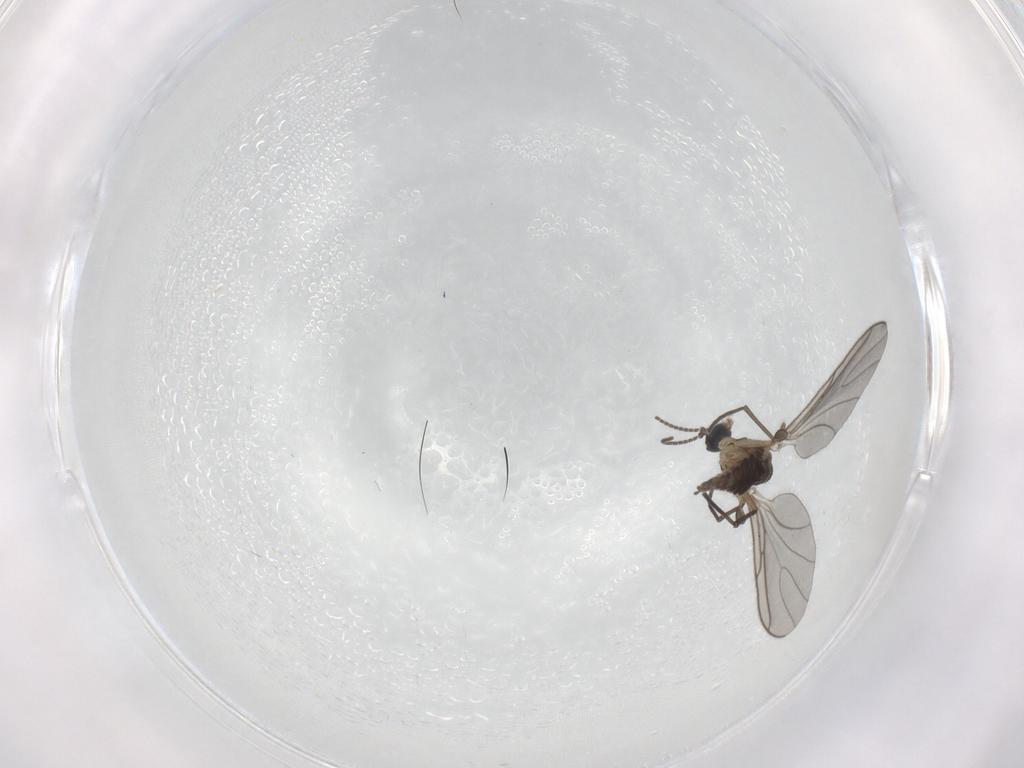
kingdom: Animalia
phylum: Arthropoda
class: Insecta
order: Diptera
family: Sciaridae
